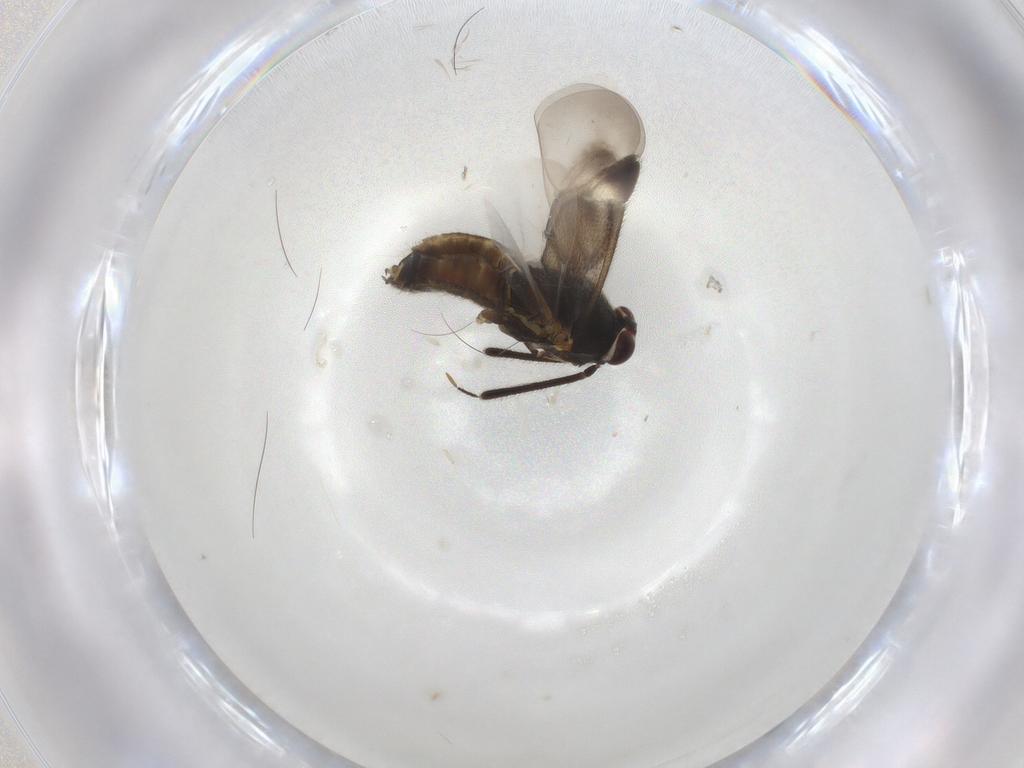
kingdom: Animalia
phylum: Arthropoda
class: Insecta
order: Hemiptera
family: Miridae
